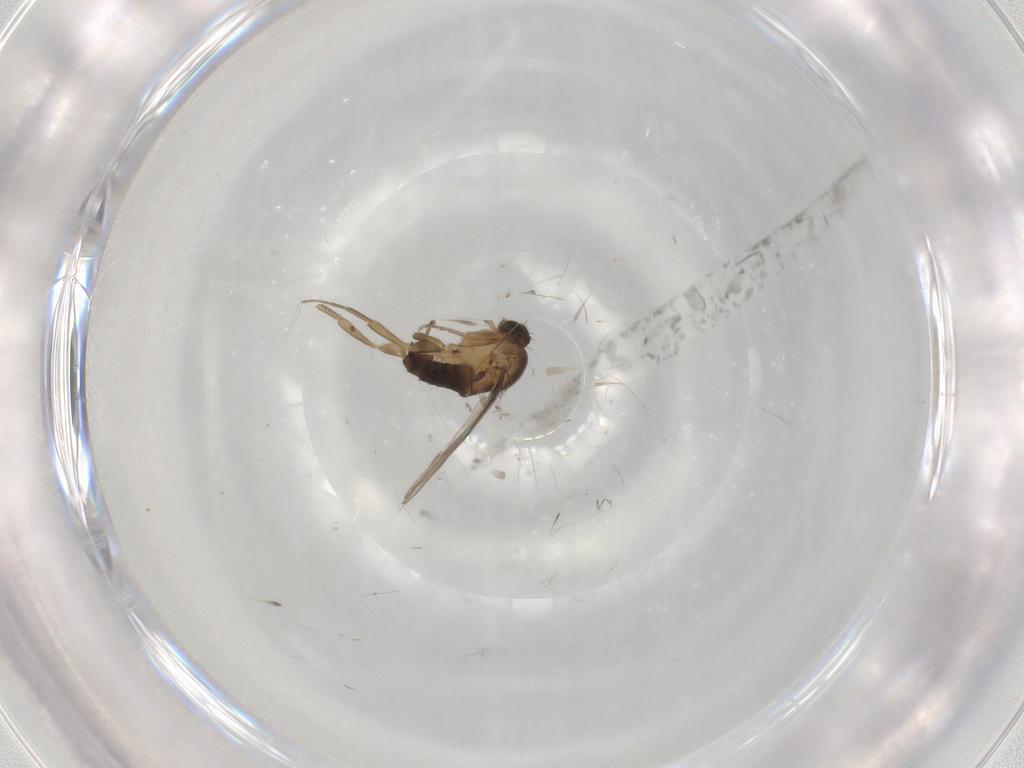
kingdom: Animalia
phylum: Arthropoda
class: Insecta
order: Diptera
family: Phoridae
